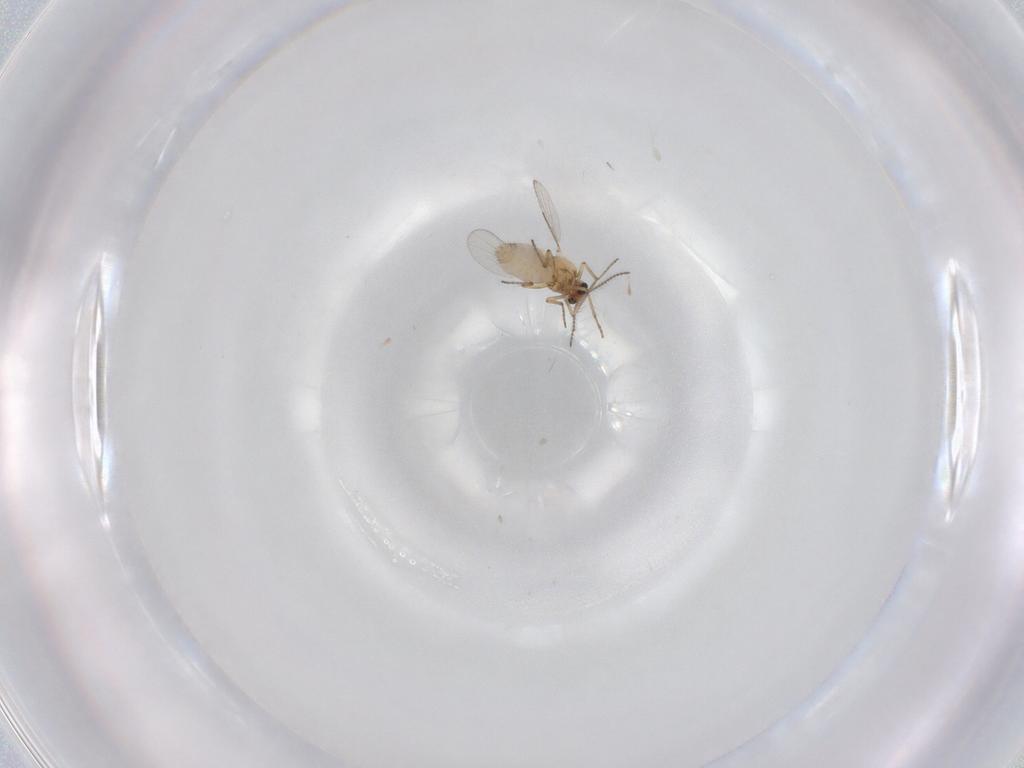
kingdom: Animalia
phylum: Arthropoda
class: Insecta
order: Diptera
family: Ceratopogonidae
